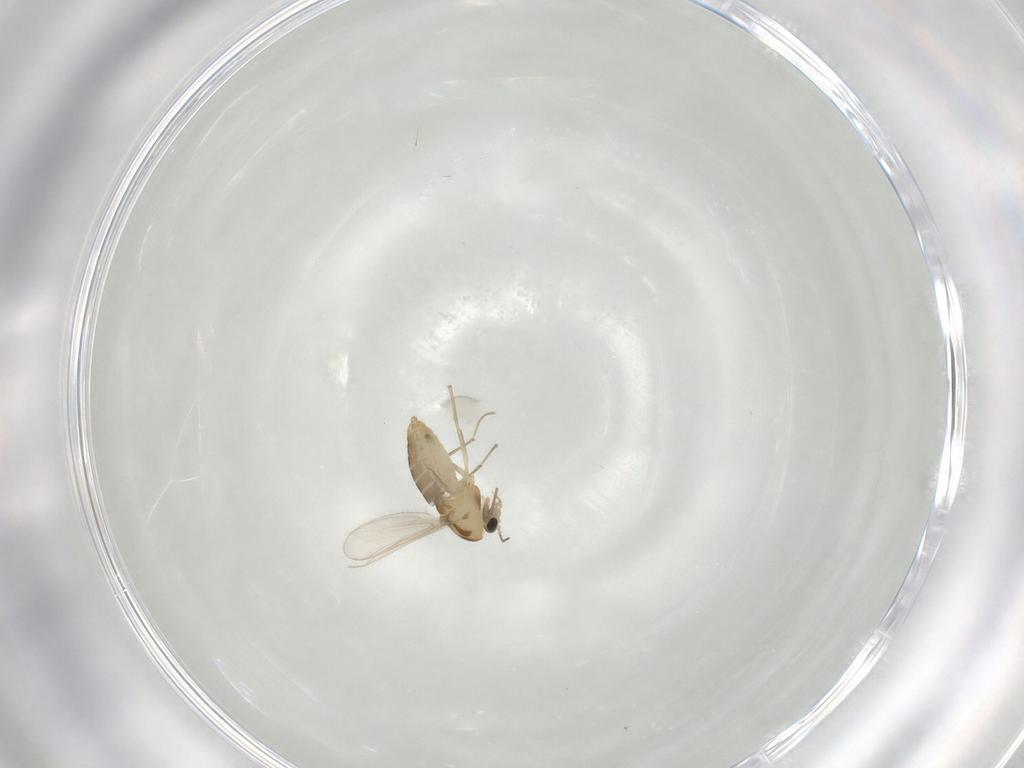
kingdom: Animalia
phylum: Arthropoda
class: Insecta
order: Diptera
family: Chironomidae
